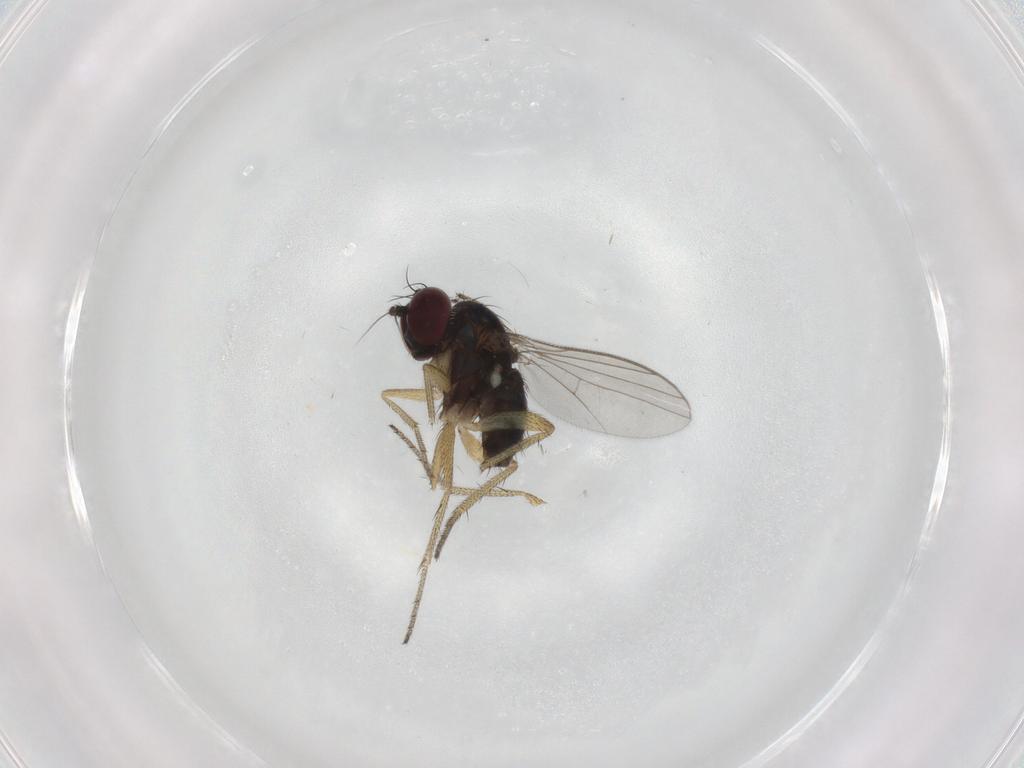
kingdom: Animalia
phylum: Arthropoda
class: Insecta
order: Diptera
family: Dolichopodidae
